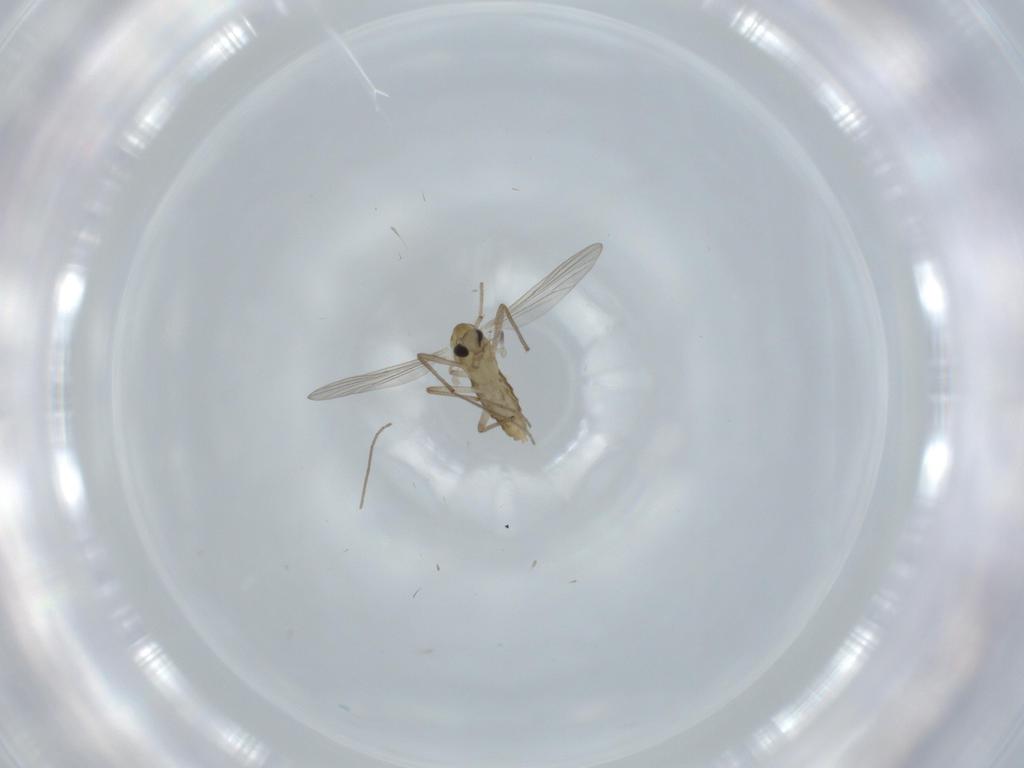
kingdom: Animalia
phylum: Arthropoda
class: Insecta
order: Diptera
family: Chironomidae
